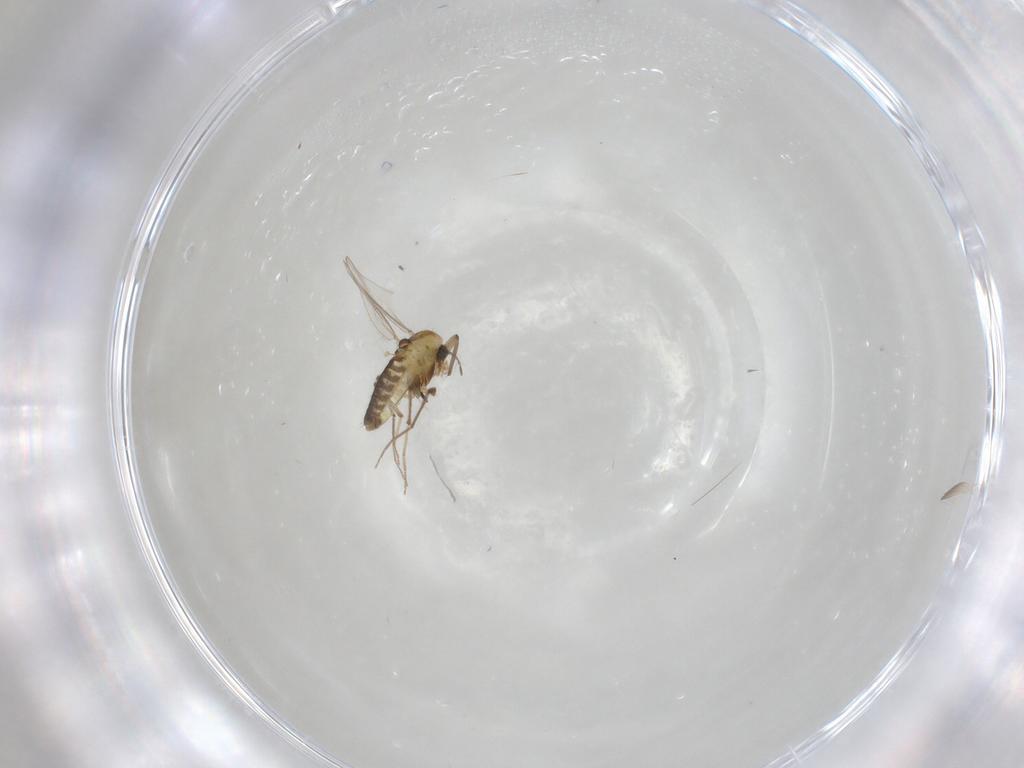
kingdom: Animalia
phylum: Arthropoda
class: Insecta
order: Diptera
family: Chironomidae
